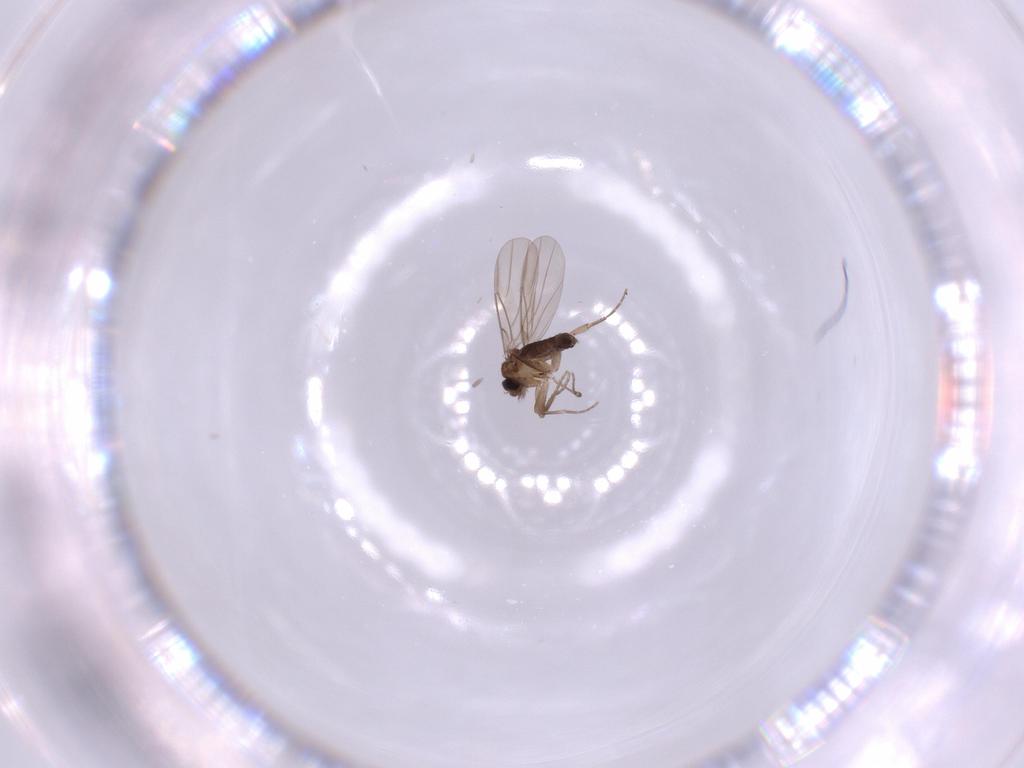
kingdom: Animalia
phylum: Arthropoda
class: Insecta
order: Diptera
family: Phoridae
